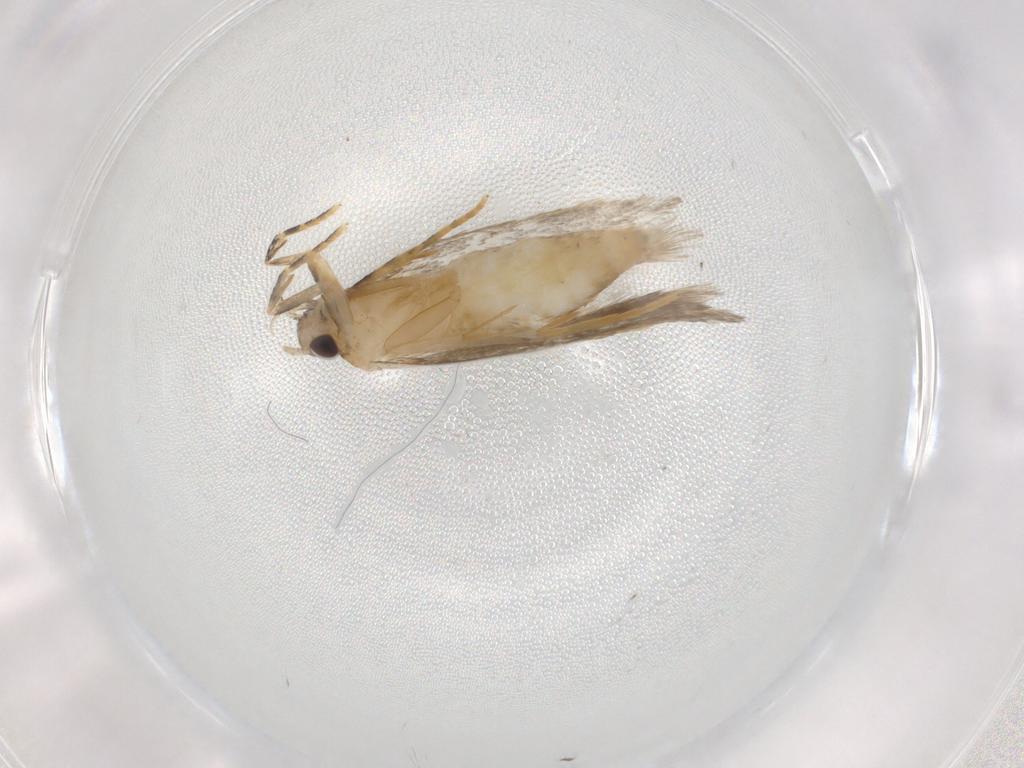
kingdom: Animalia
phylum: Arthropoda
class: Insecta
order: Lepidoptera
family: Autostichidae
